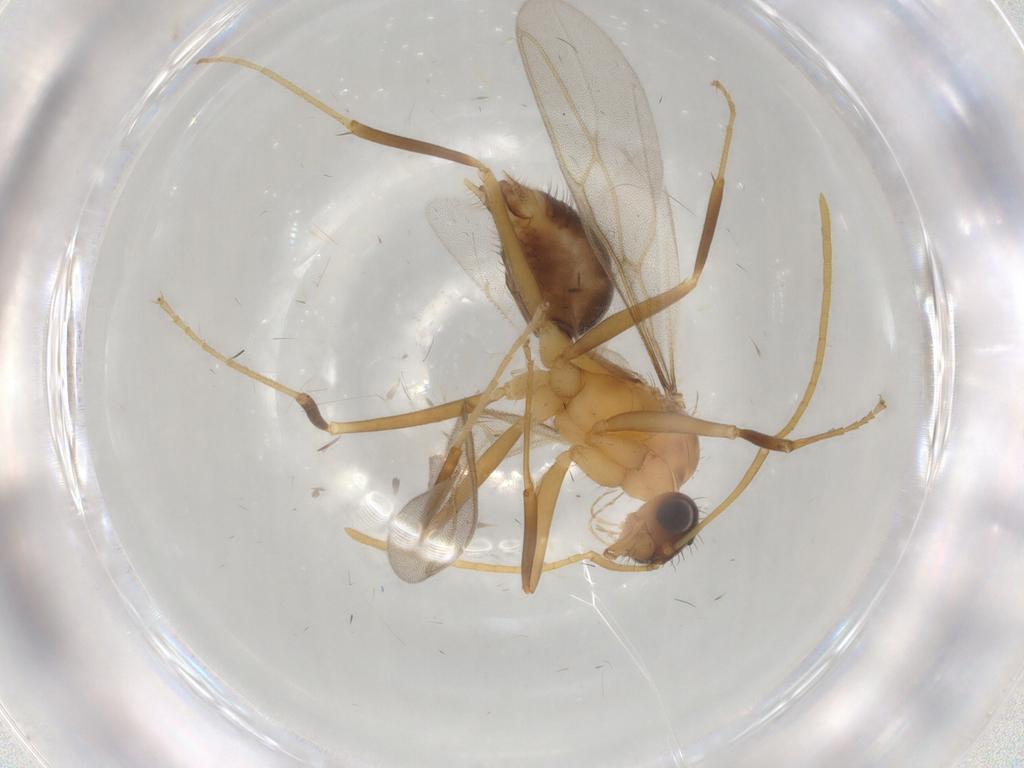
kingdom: Animalia
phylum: Arthropoda
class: Insecta
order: Hymenoptera
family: Formicidae
